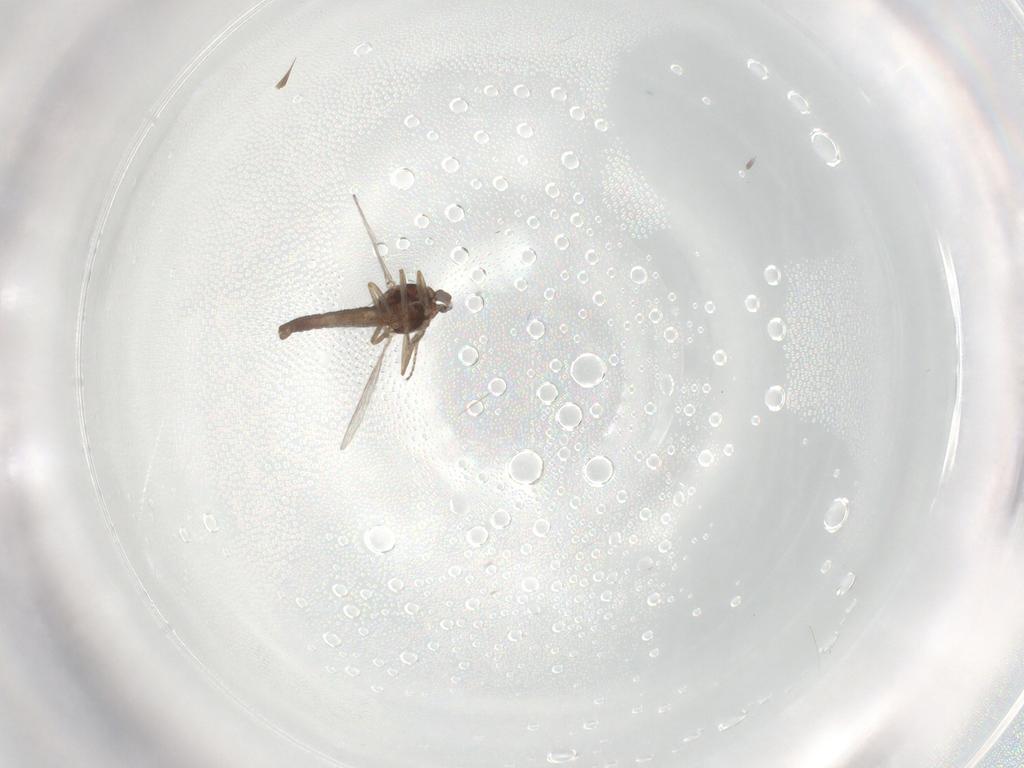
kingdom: Animalia
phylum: Arthropoda
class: Insecta
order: Diptera
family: Ceratopogonidae
